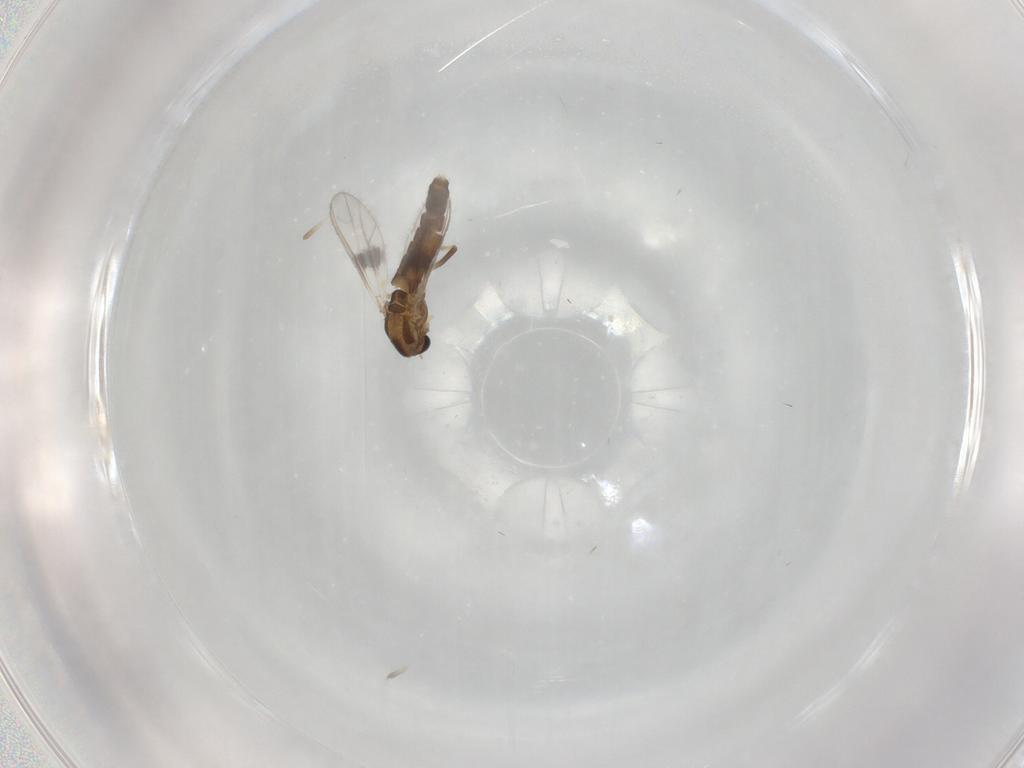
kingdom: Animalia
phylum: Arthropoda
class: Insecta
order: Diptera
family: Chironomidae
